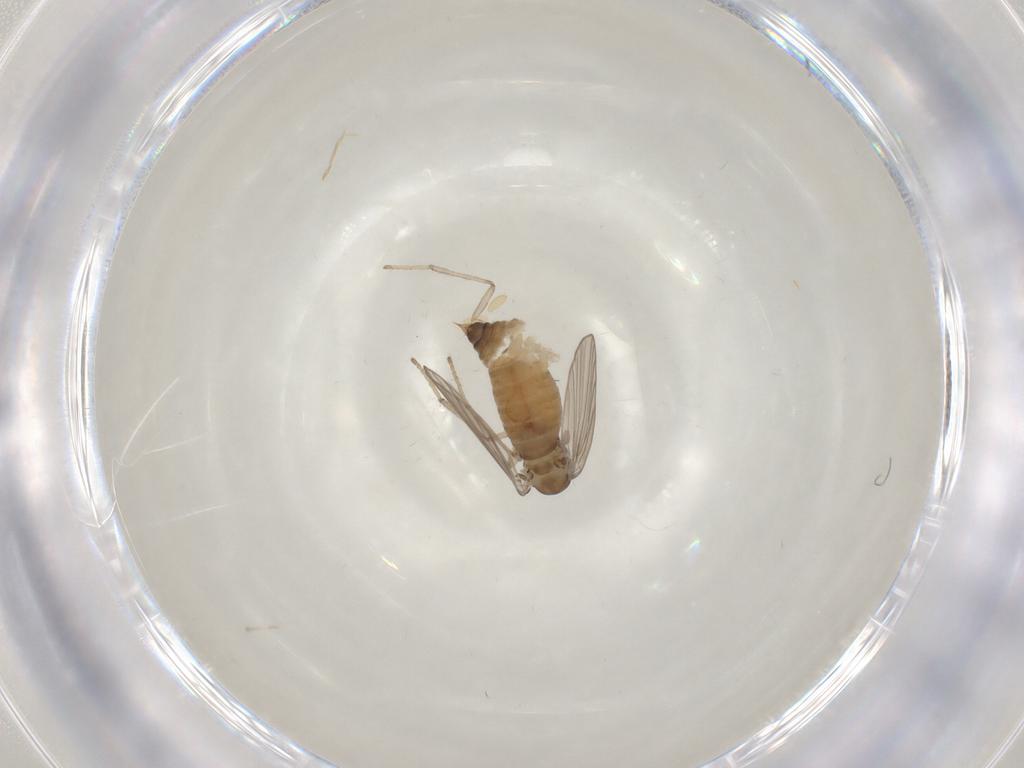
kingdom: Animalia
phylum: Arthropoda
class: Insecta
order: Diptera
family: Psychodidae
